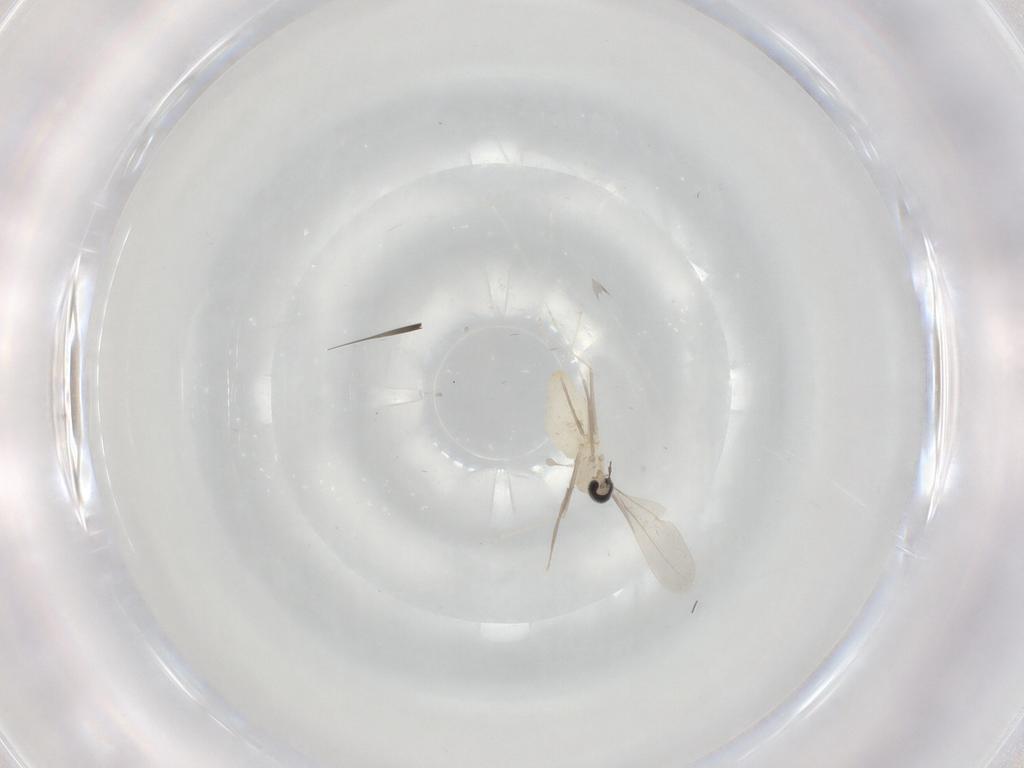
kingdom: Animalia
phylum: Arthropoda
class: Insecta
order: Diptera
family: Cecidomyiidae
